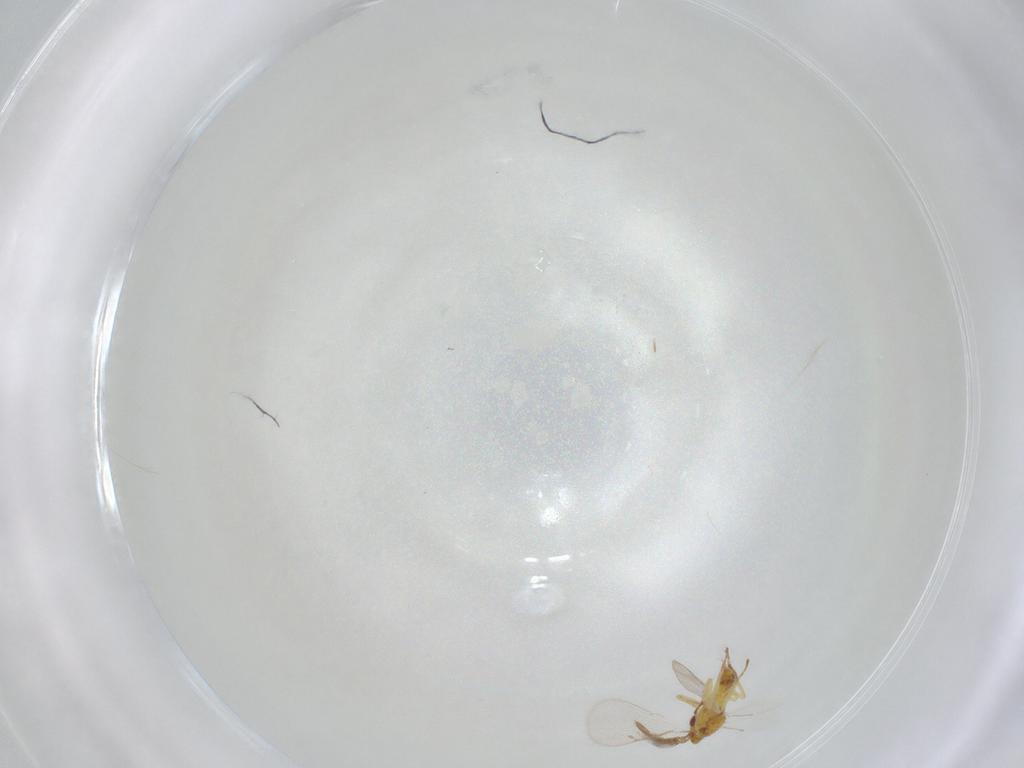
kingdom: Animalia
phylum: Arthropoda
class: Insecta
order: Hymenoptera
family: Eulophidae
